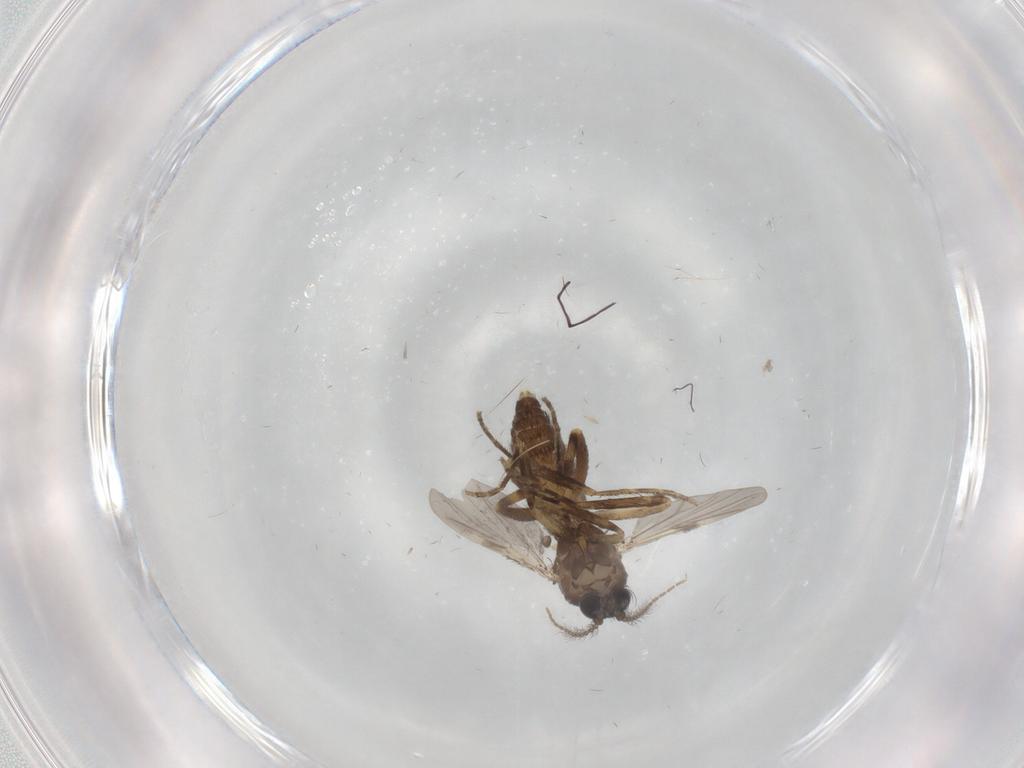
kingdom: Animalia
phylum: Arthropoda
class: Insecta
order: Diptera
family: Ceratopogonidae
